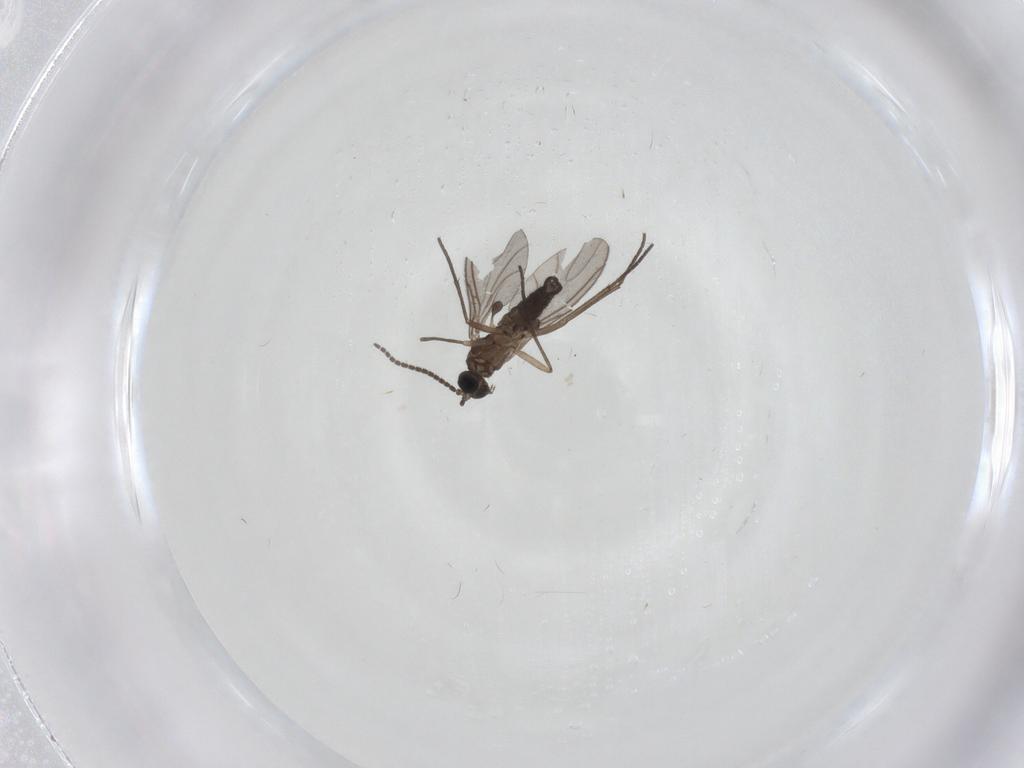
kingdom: Animalia
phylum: Arthropoda
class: Insecta
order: Diptera
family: Sciaridae
